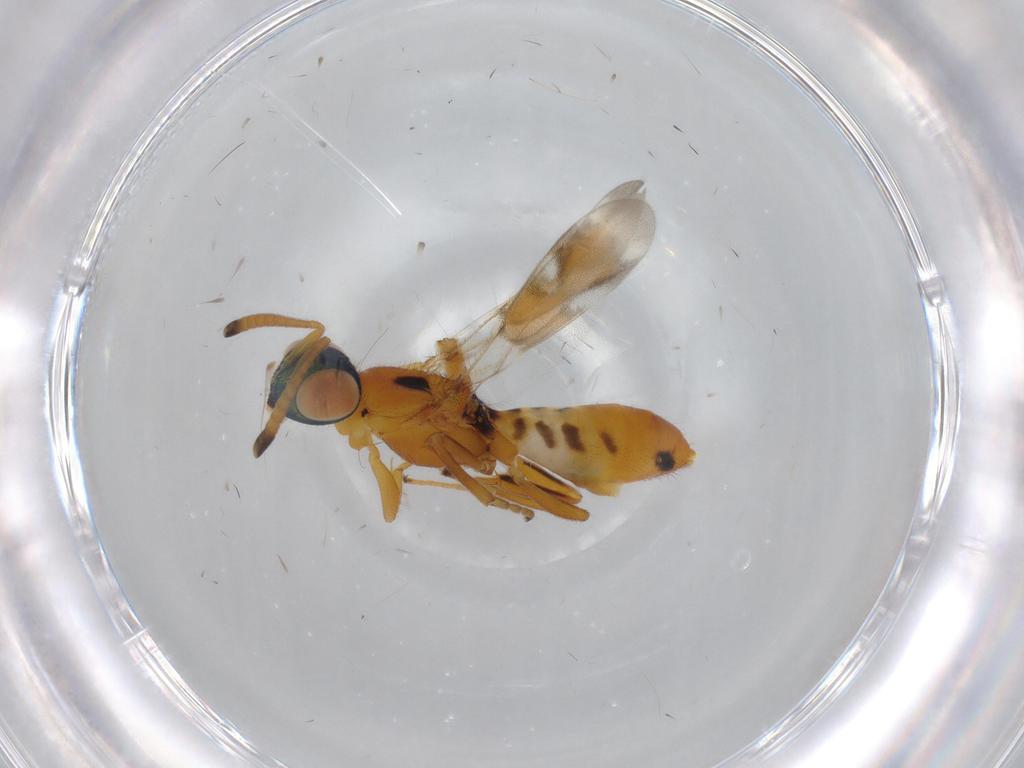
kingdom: Animalia
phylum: Arthropoda
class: Insecta
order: Hymenoptera
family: Eupelmidae
